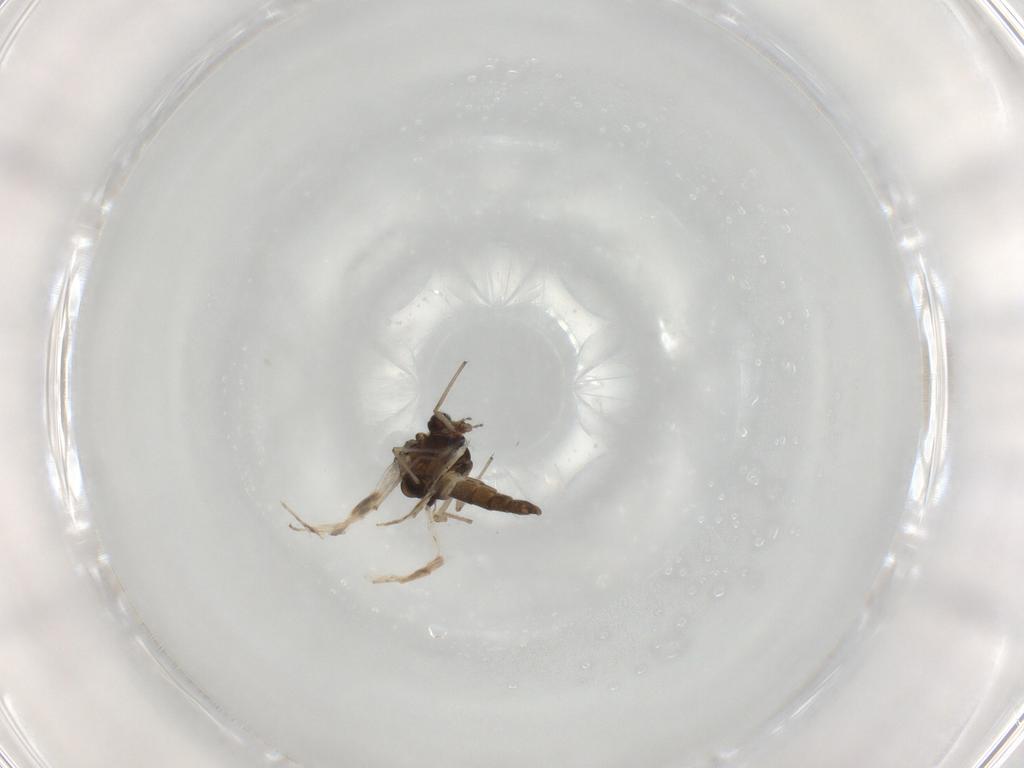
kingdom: Animalia
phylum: Arthropoda
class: Insecta
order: Diptera
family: Chironomidae
